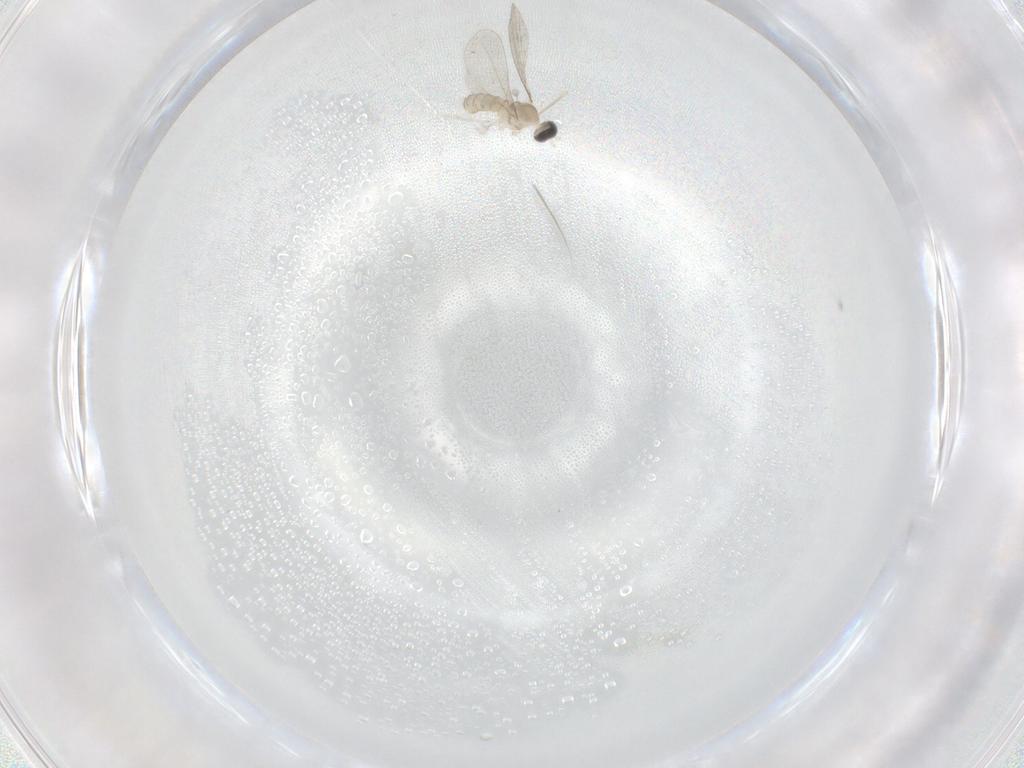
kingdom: Animalia
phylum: Arthropoda
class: Insecta
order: Diptera
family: Cecidomyiidae
